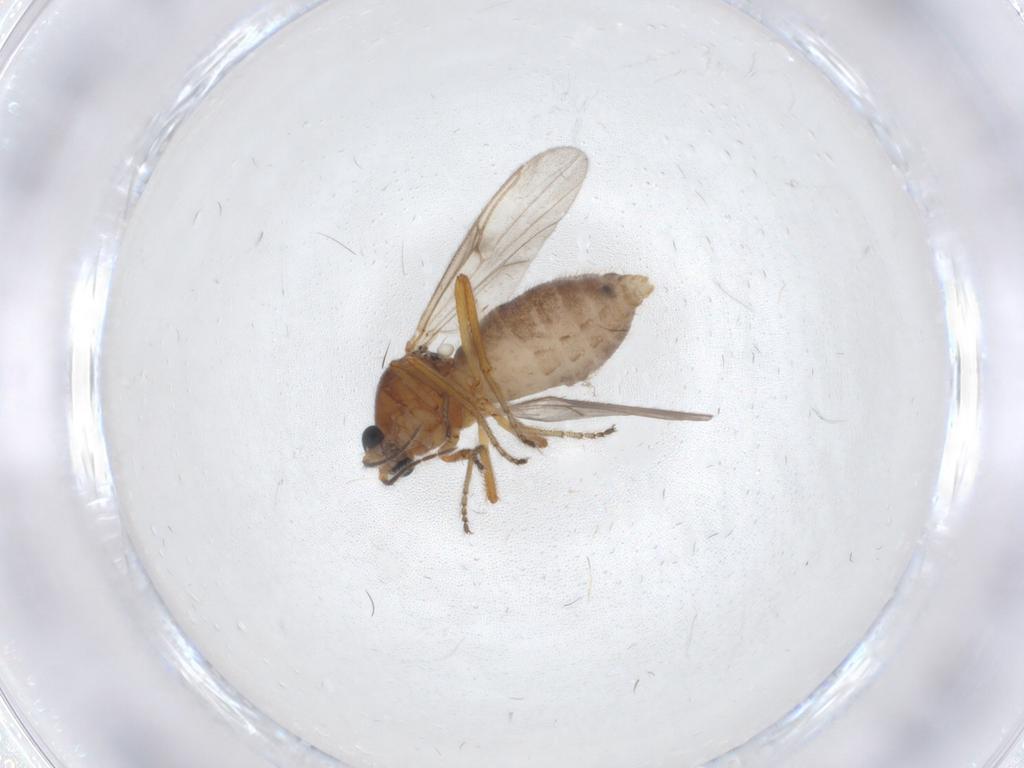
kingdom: Animalia
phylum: Arthropoda
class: Insecta
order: Diptera
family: Ceratopogonidae
